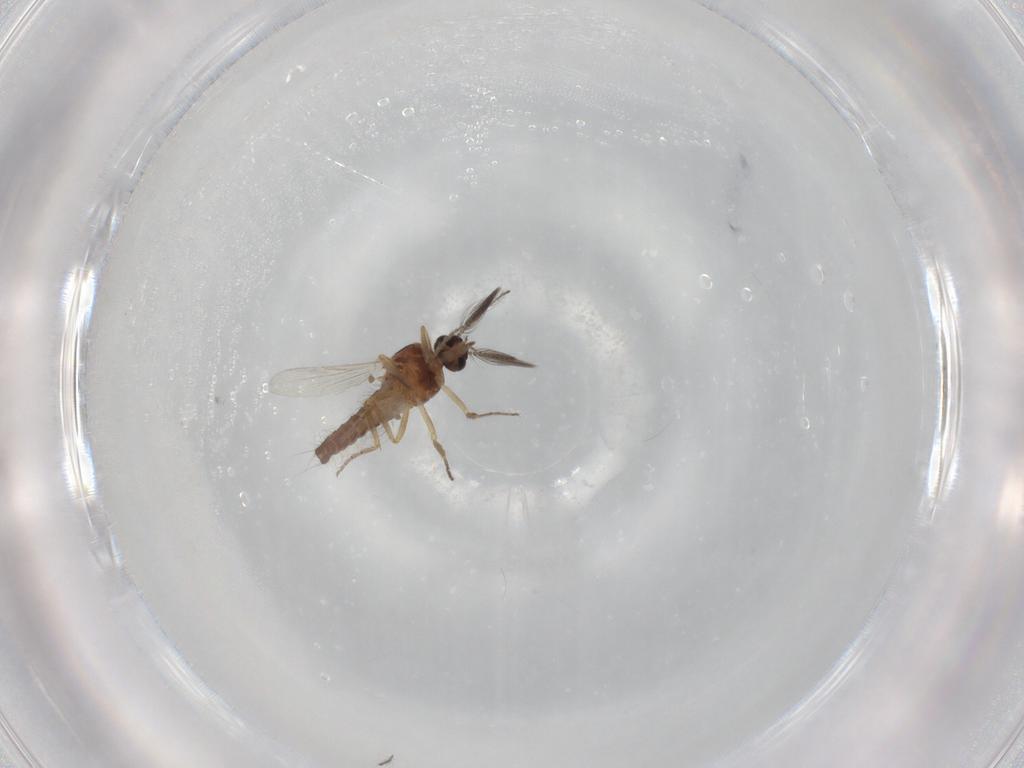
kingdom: Animalia
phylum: Arthropoda
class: Insecta
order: Diptera
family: Ceratopogonidae
